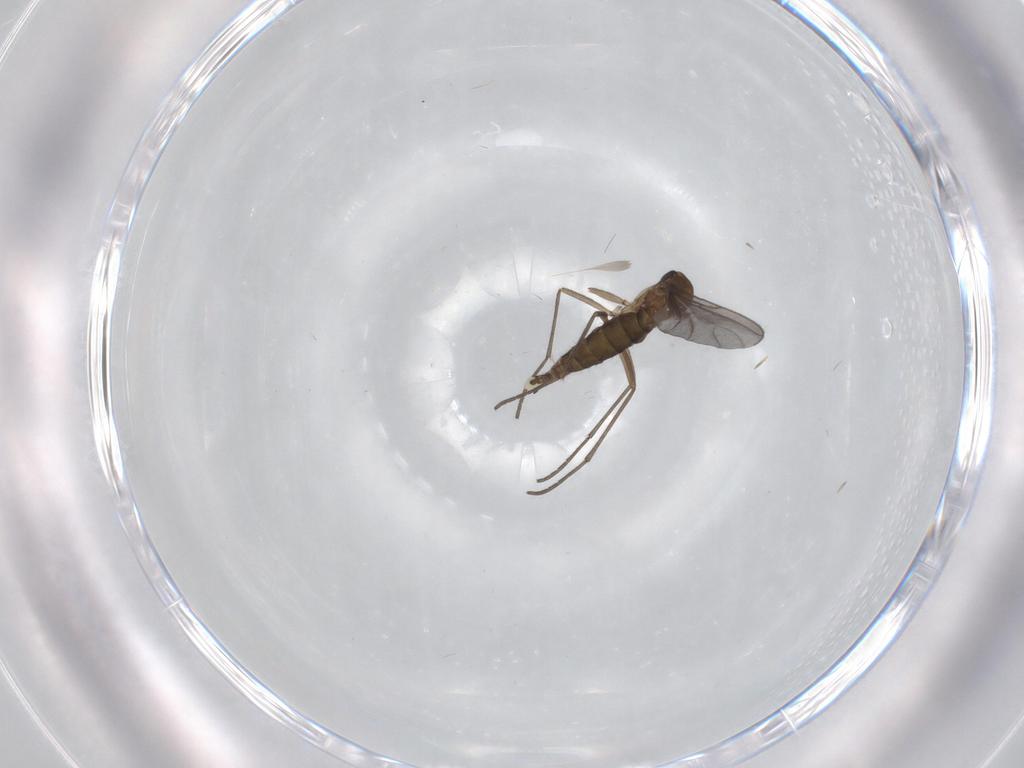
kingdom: Animalia
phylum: Arthropoda
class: Insecta
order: Diptera
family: Sciaridae
